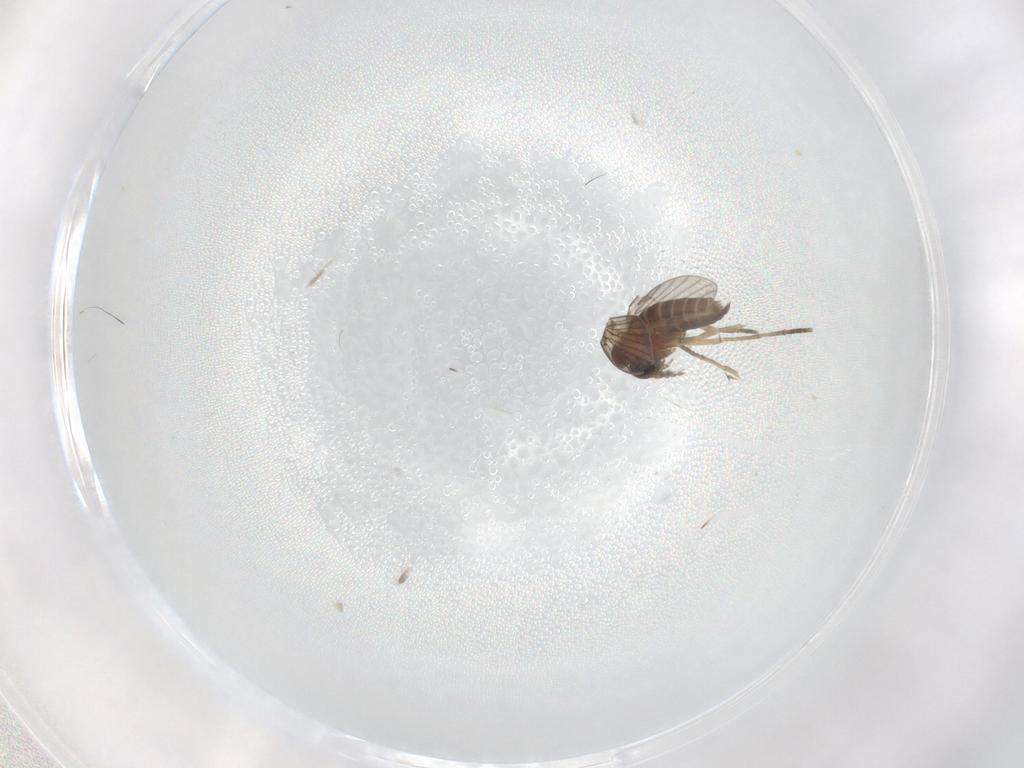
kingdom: Animalia
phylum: Arthropoda
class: Insecta
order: Diptera
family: Psychodidae
